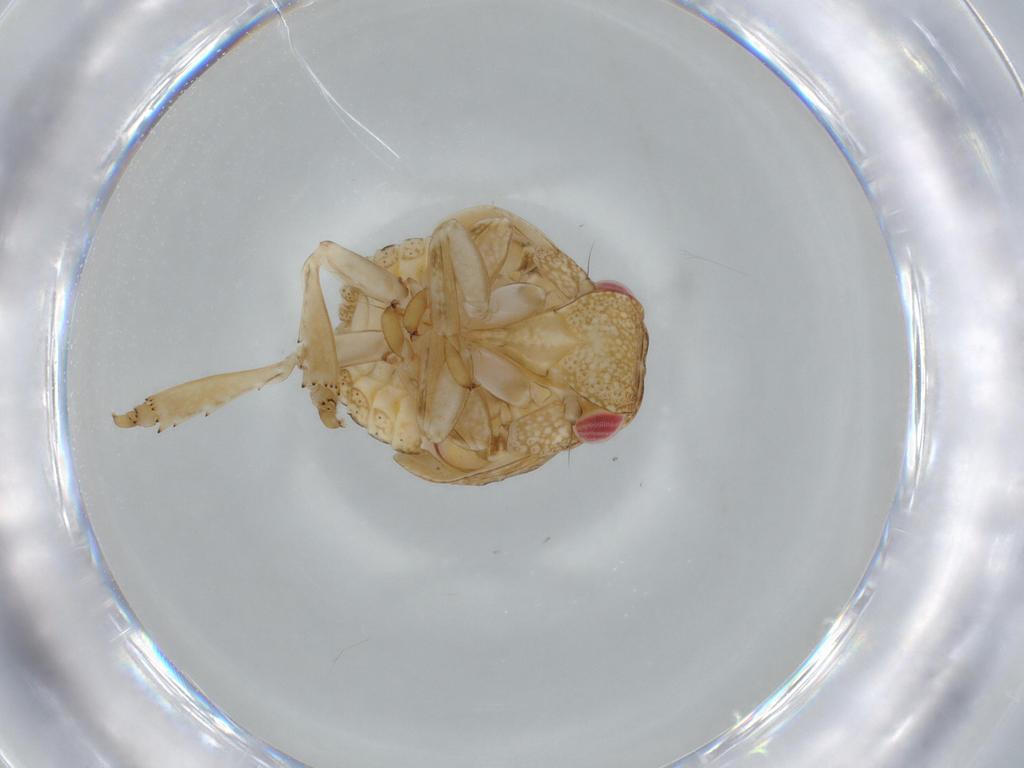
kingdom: Animalia
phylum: Arthropoda
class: Insecta
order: Hemiptera
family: Acanaloniidae
